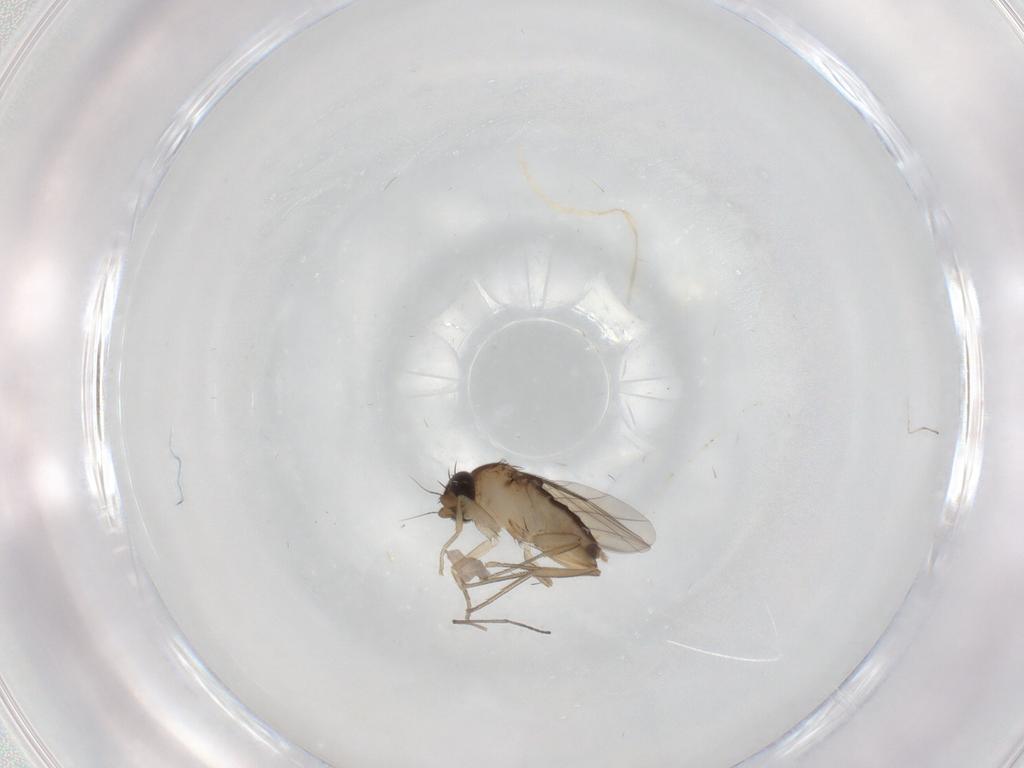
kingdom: Animalia
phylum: Arthropoda
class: Insecta
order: Diptera
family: Phoridae
